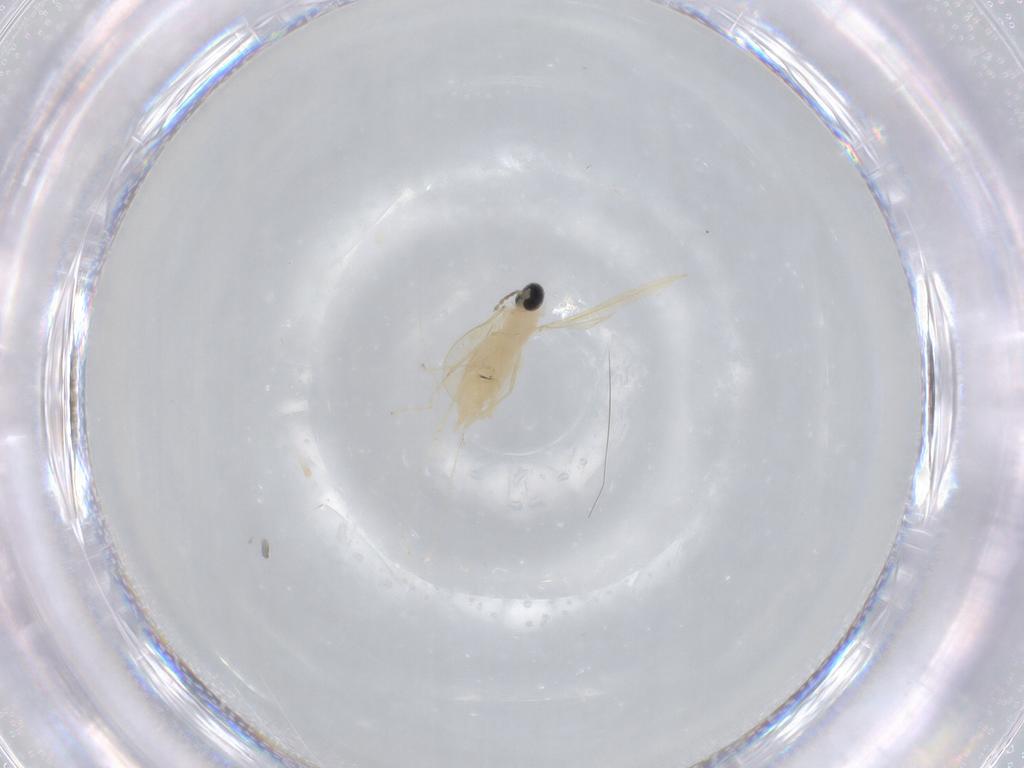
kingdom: Animalia
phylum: Arthropoda
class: Insecta
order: Diptera
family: Cecidomyiidae
